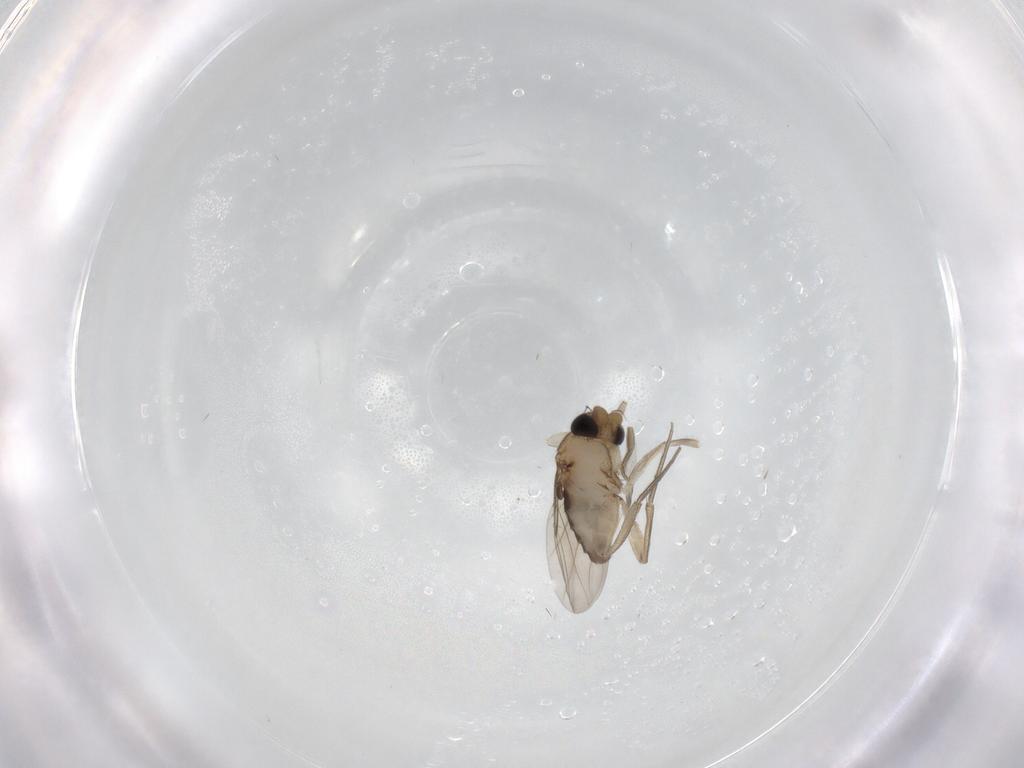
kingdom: Animalia
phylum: Arthropoda
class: Insecta
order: Diptera
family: Phoridae
